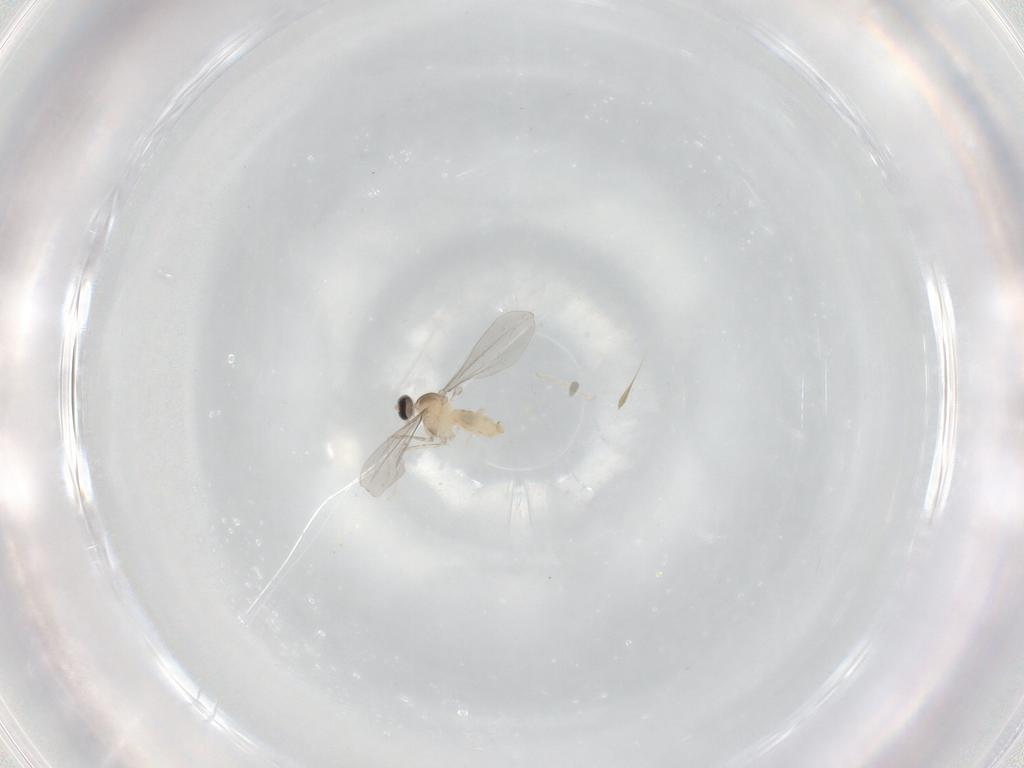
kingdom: Animalia
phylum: Arthropoda
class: Insecta
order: Diptera
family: Cecidomyiidae
